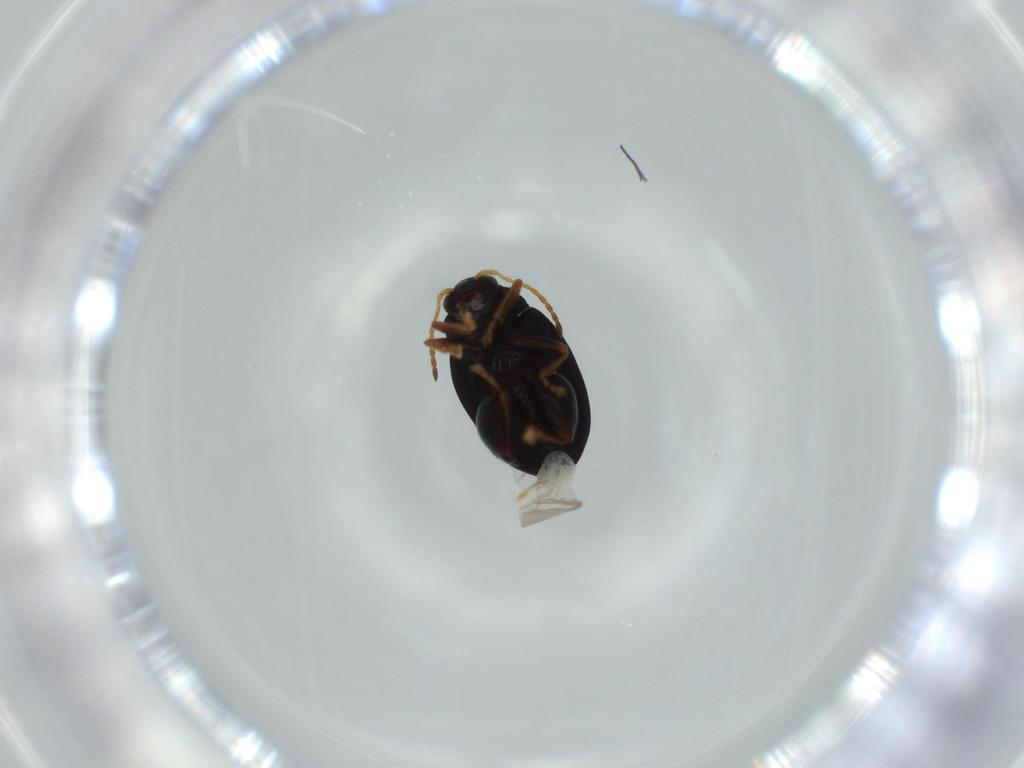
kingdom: Animalia
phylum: Arthropoda
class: Insecta
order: Coleoptera
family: Chrysomelidae
